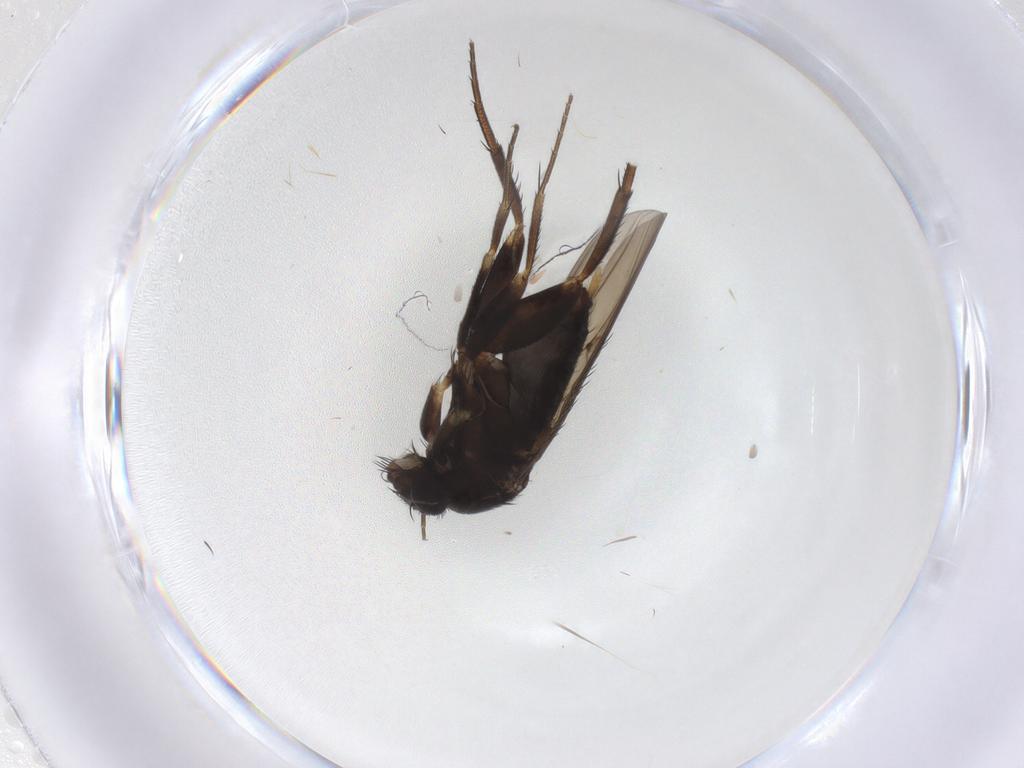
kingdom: Animalia
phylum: Arthropoda
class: Insecta
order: Diptera
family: Phoridae
